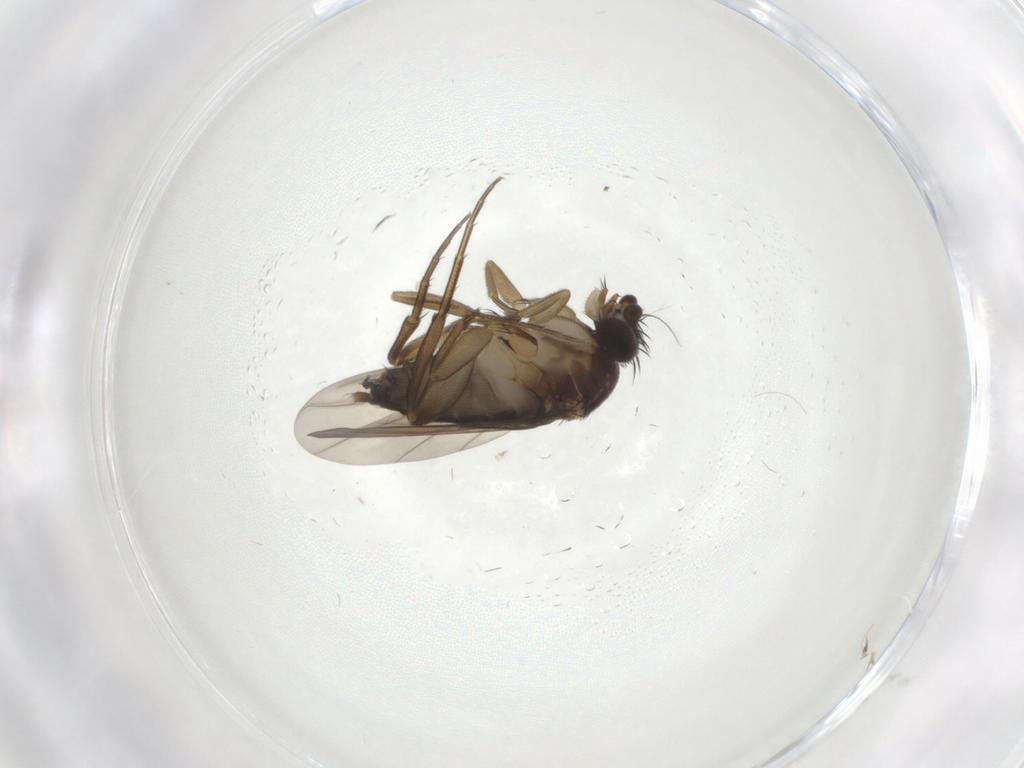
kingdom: Animalia
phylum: Arthropoda
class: Insecta
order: Diptera
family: Phoridae
